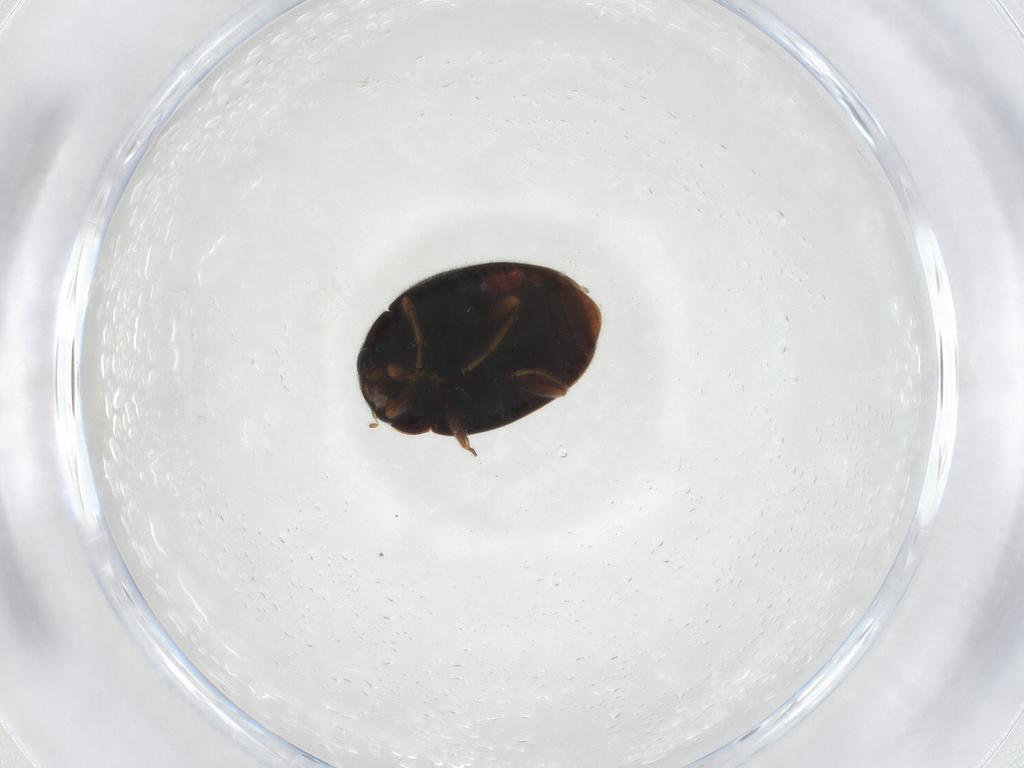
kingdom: Animalia
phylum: Arthropoda
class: Insecta
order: Coleoptera
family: Coccinellidae
